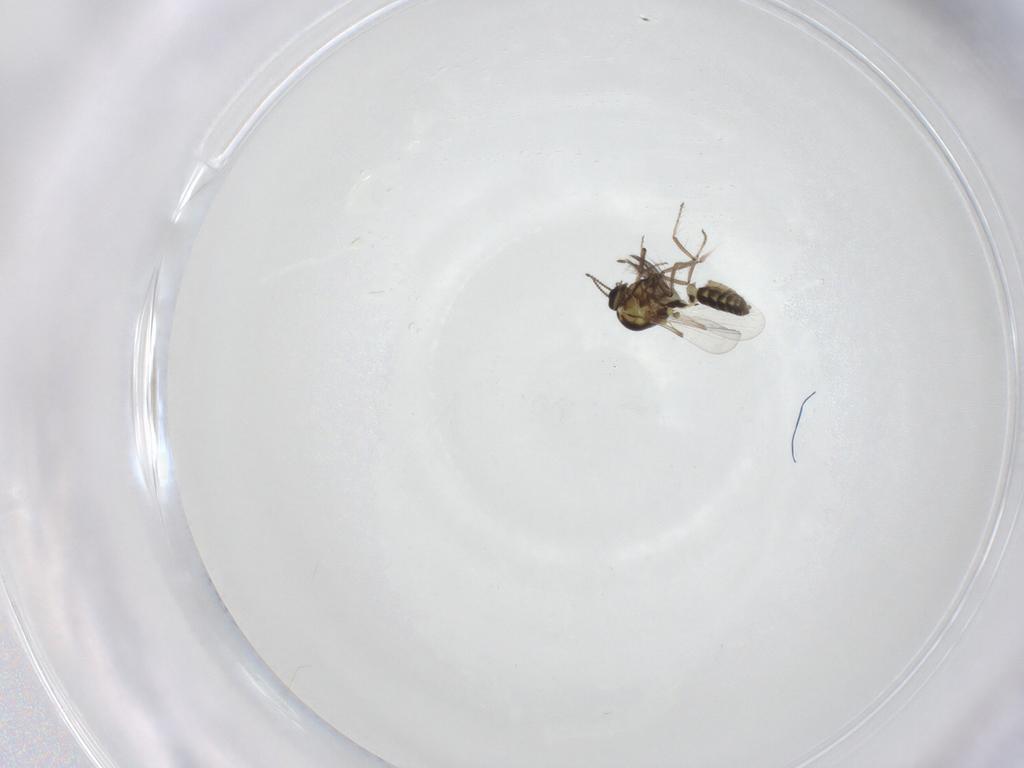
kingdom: Animalia
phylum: Arthropoda
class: Insecta
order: Diptera
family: Ceratopogonidae
